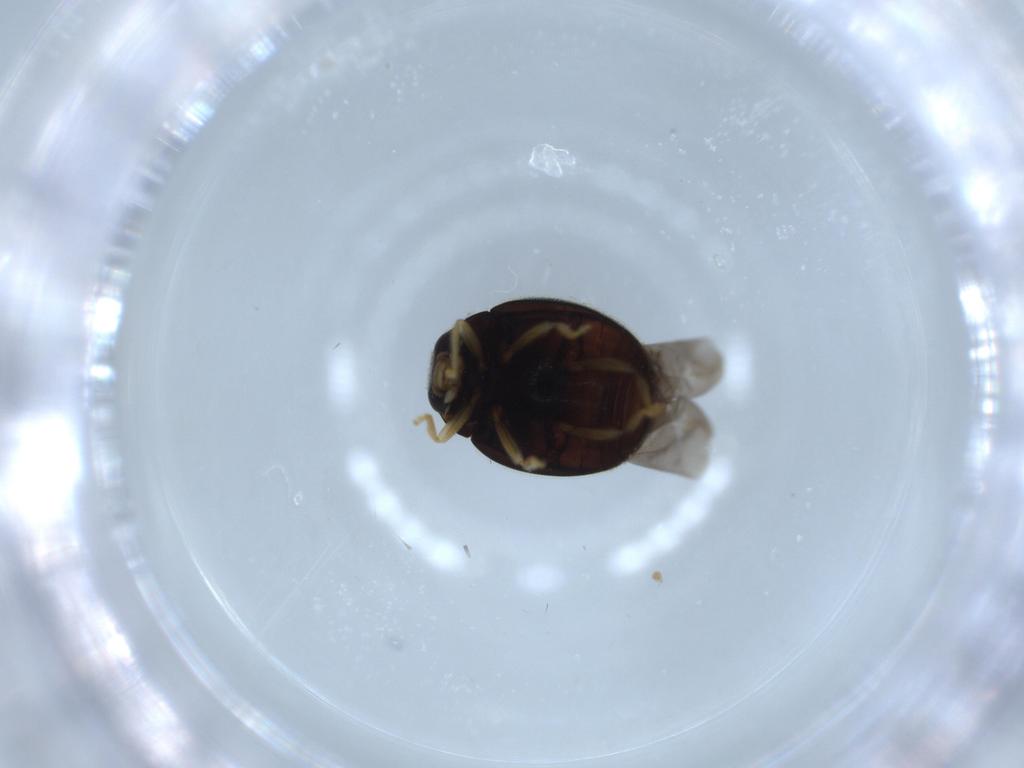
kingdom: Animalia
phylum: Arthropoda
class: Insecta
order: Coleoptera
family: Coccinellidae
